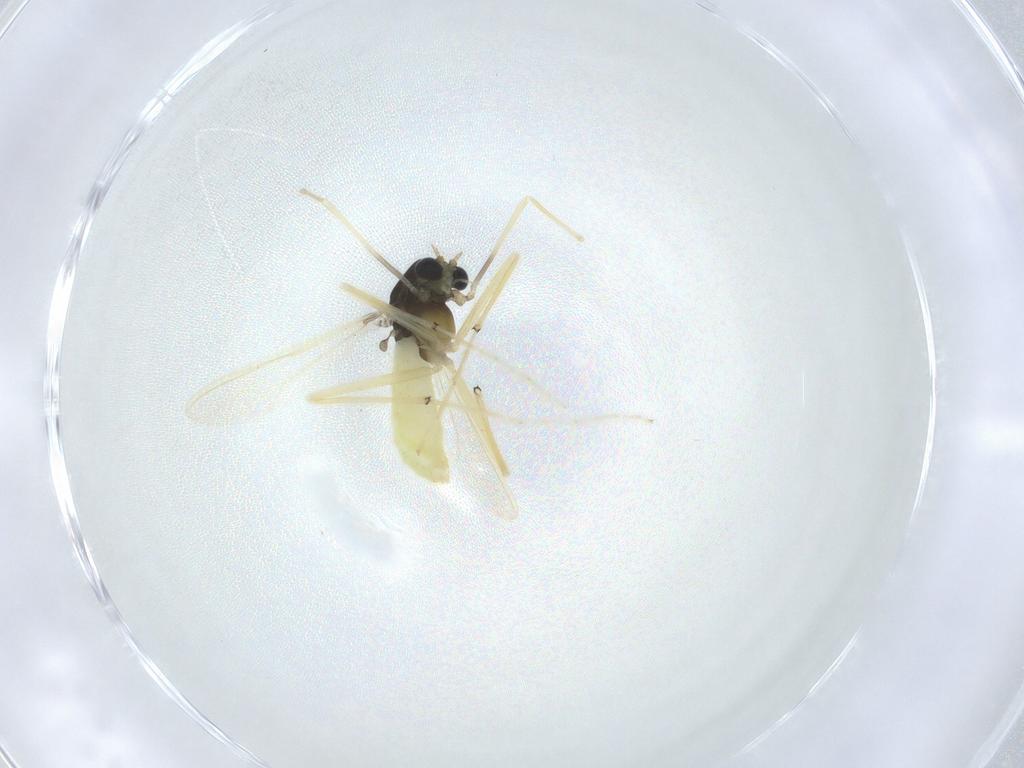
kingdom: Animalia
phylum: Arthropoda
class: Insecta
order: Diptera
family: Chironomidae
